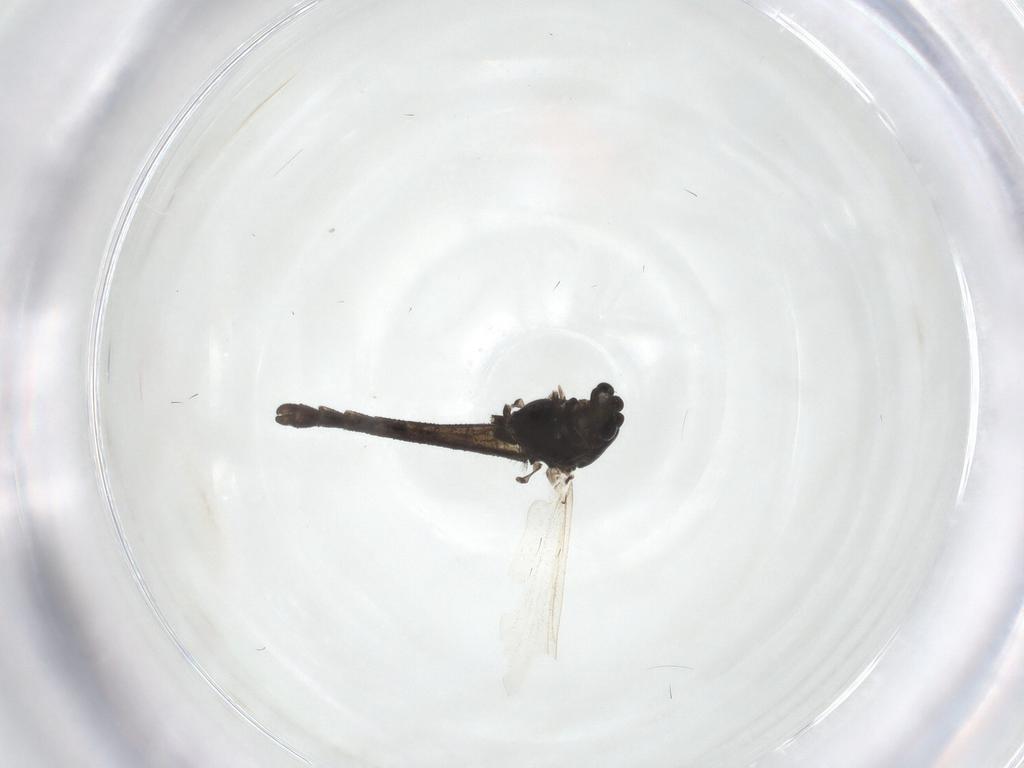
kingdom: Animalia
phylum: Arthropoda
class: Insecta
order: Diptera
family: Chironomidae
